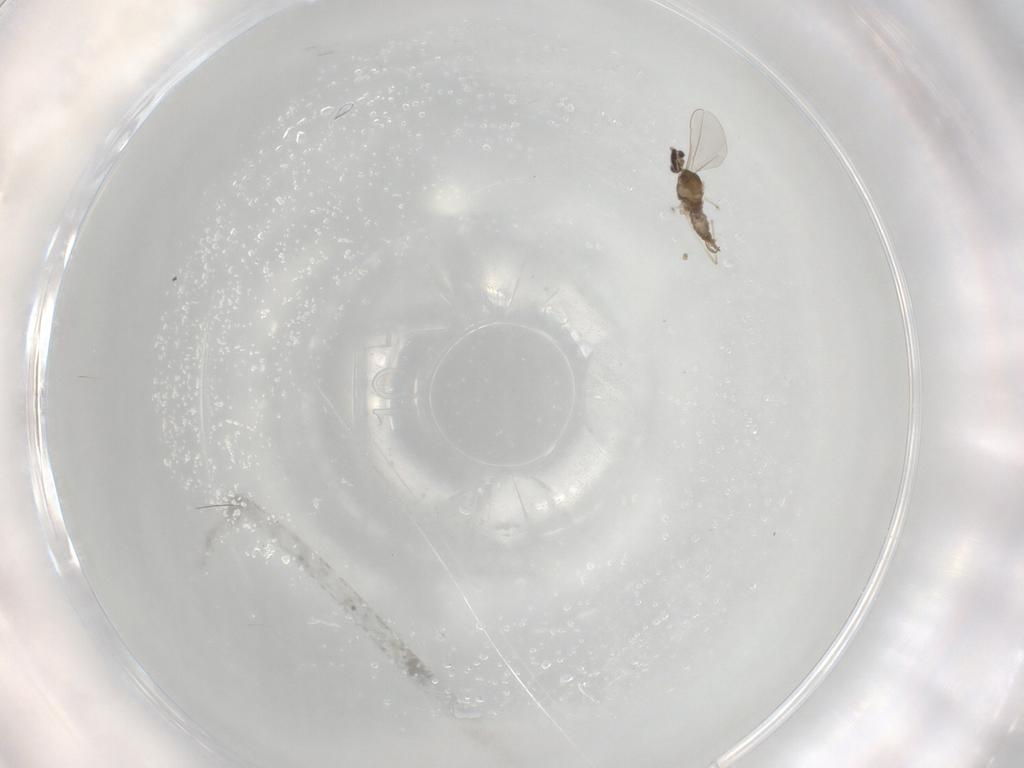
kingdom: Animalia
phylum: Arthropoda
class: Insecta
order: Diptera
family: Cecidomyiidae
